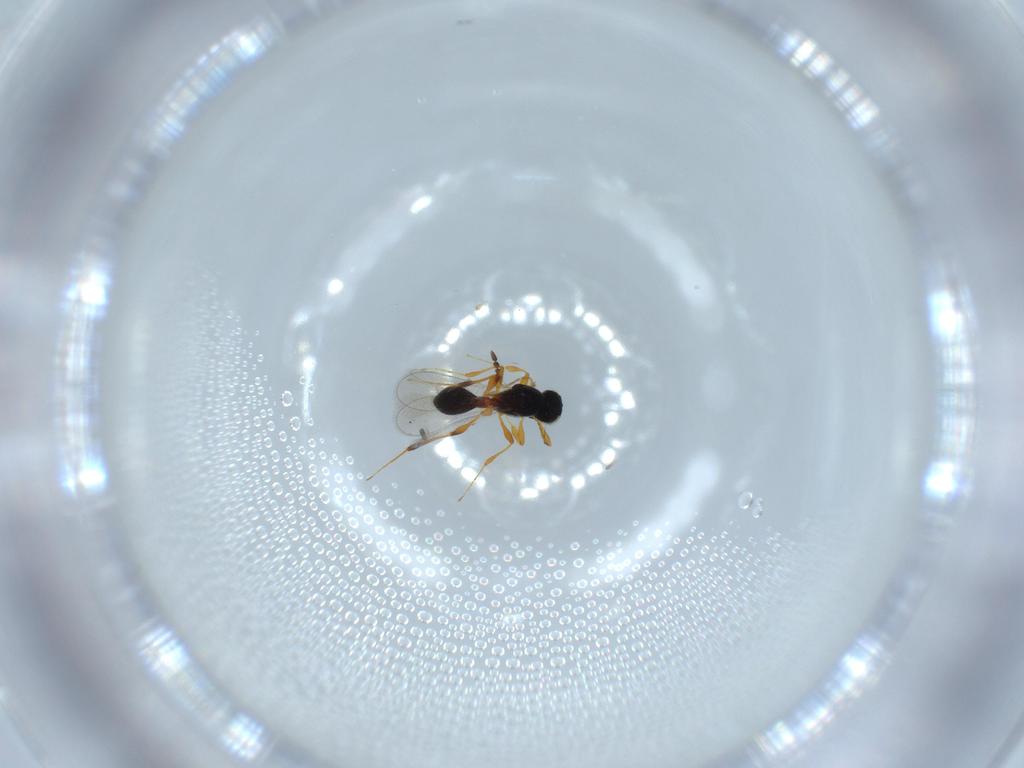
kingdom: Animalia
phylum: Arthropoda
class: Insecta
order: Hymenoptera
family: Platygastridae
